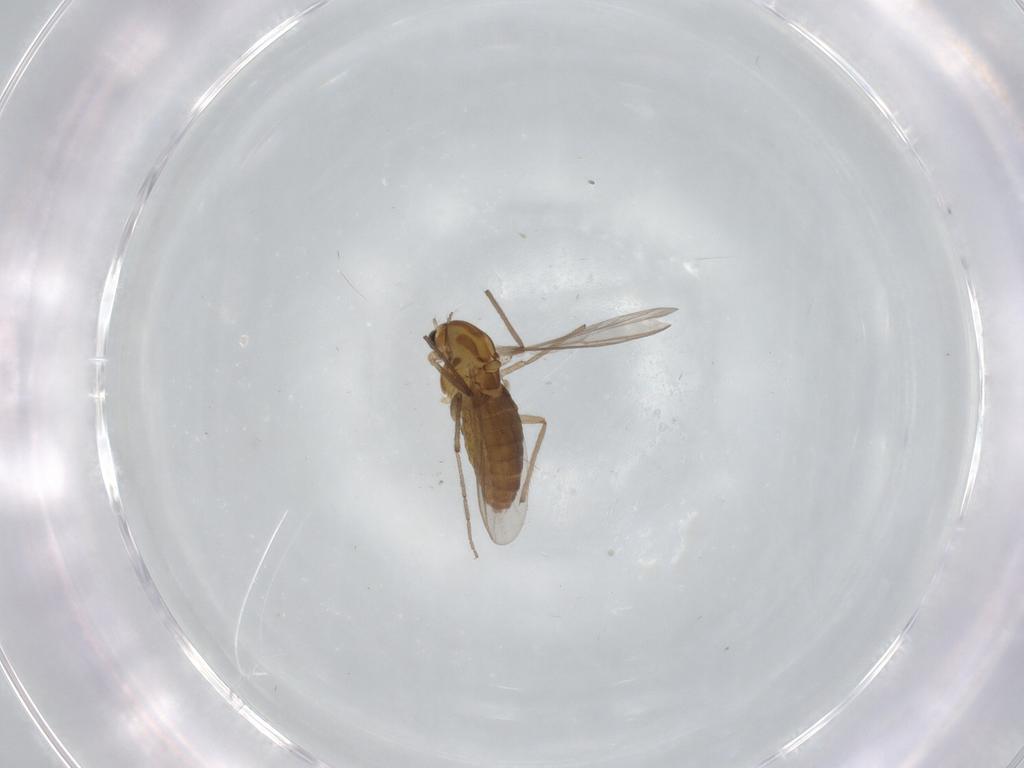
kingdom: Animalia
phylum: Arthropoda
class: Insecta
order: Diptera
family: Chironomidae
